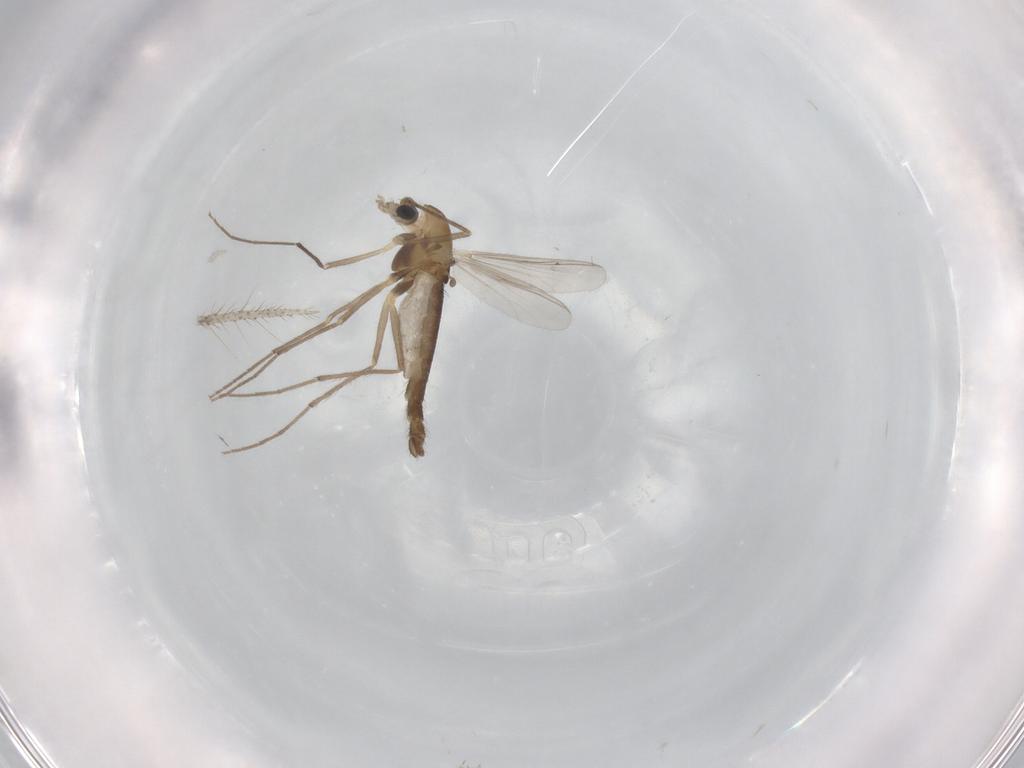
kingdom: Animalia
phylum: Arthropoda
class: Insecta
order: Diptera
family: Chironomidae
